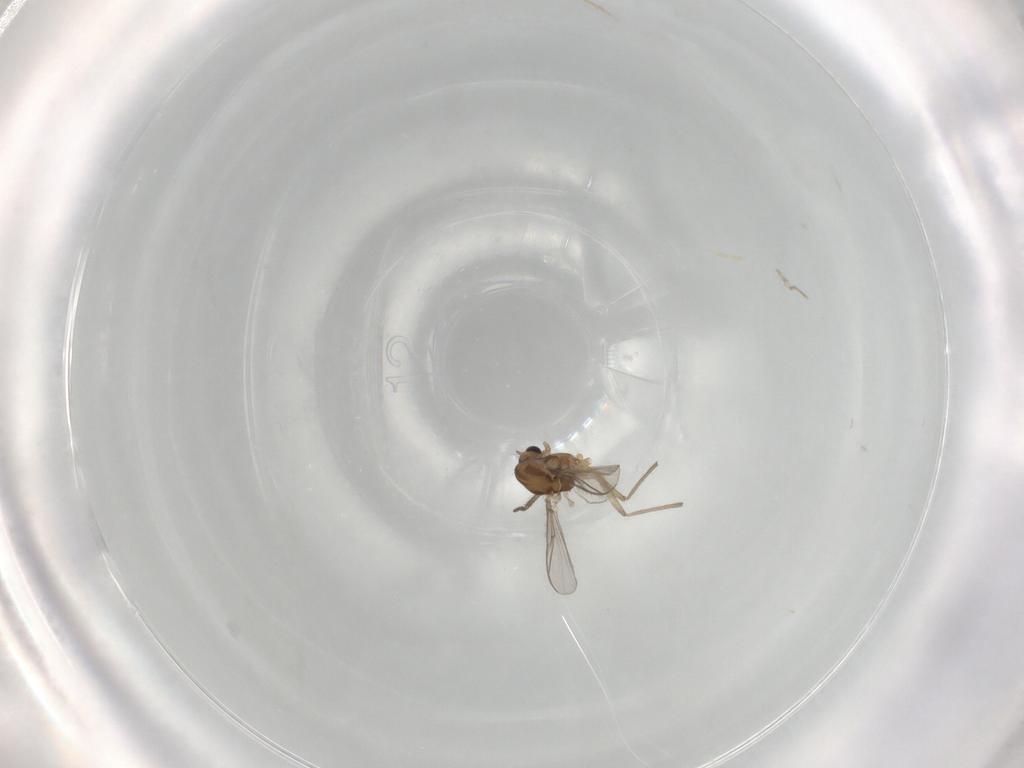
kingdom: Animalia
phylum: Arthropoda
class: Insecta
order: Diptera
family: Chironomidae
